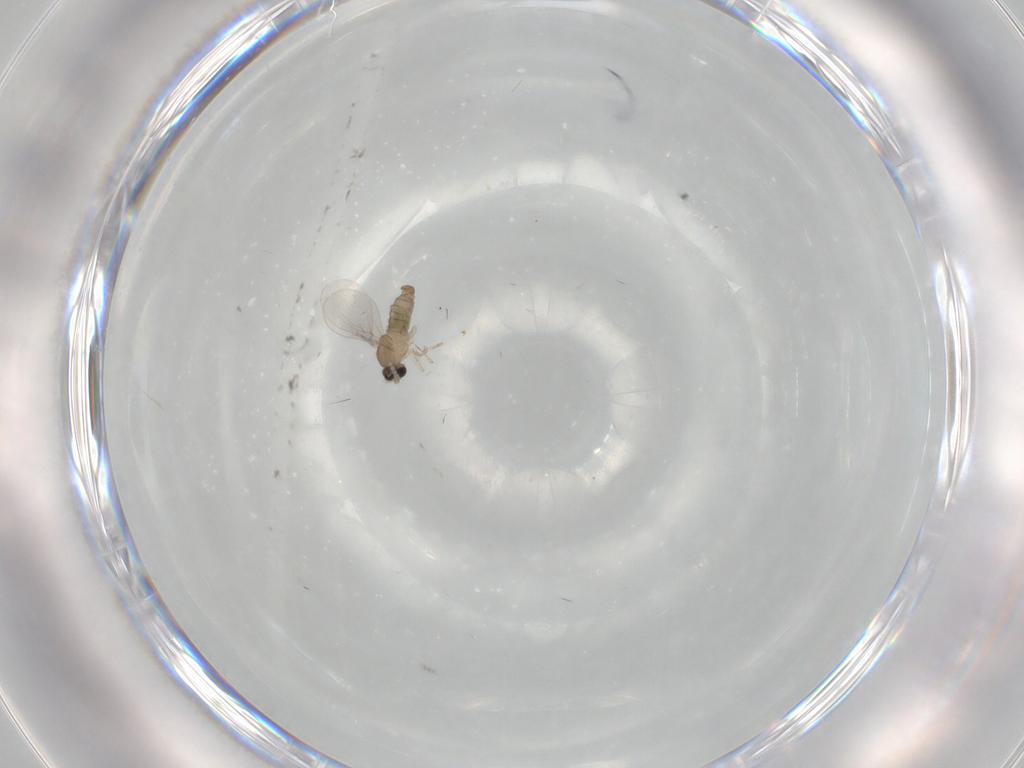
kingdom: Animalia
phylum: Arthropoda
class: Insecta
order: Diptera
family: Cecidomyiidae
